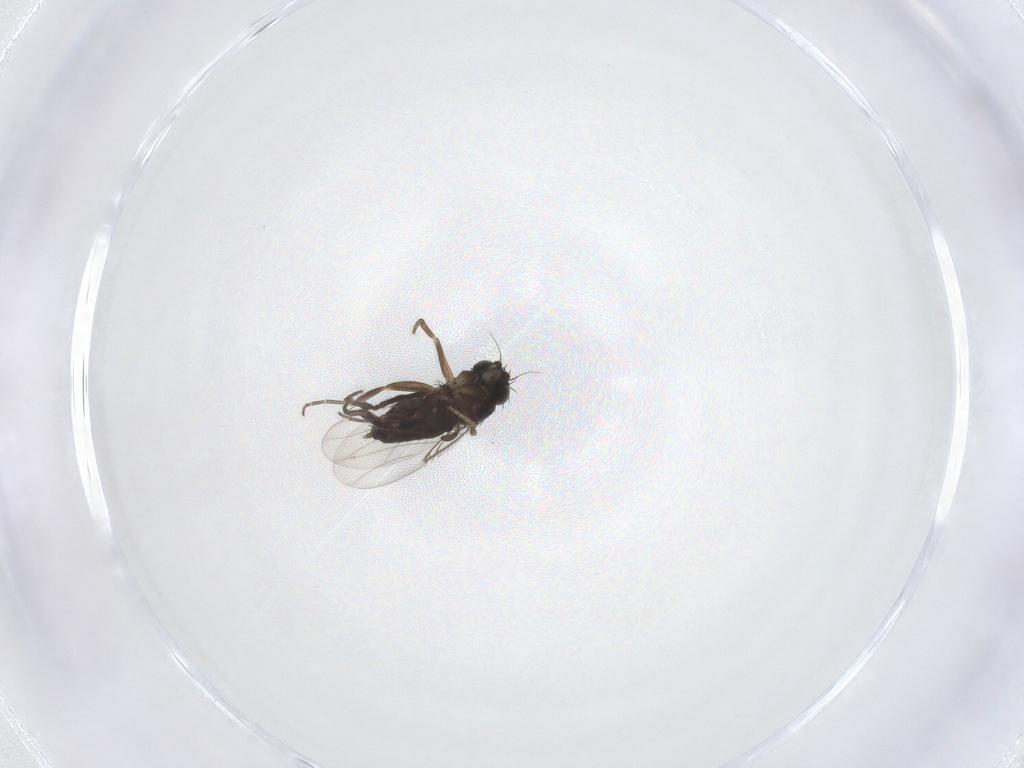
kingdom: Animalia
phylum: Arthropoda
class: Insecta
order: Diptera
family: Phoridae
